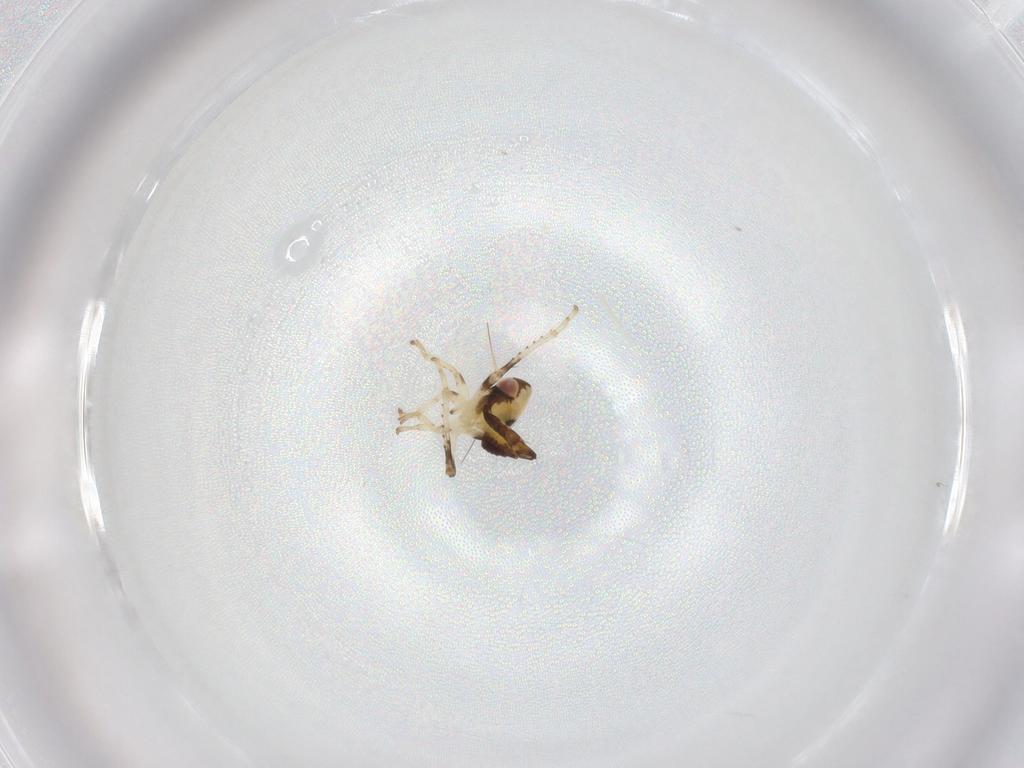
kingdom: Animalia
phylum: Arthropoda
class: Insecta
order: Hemiptera
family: Cicadellidae
